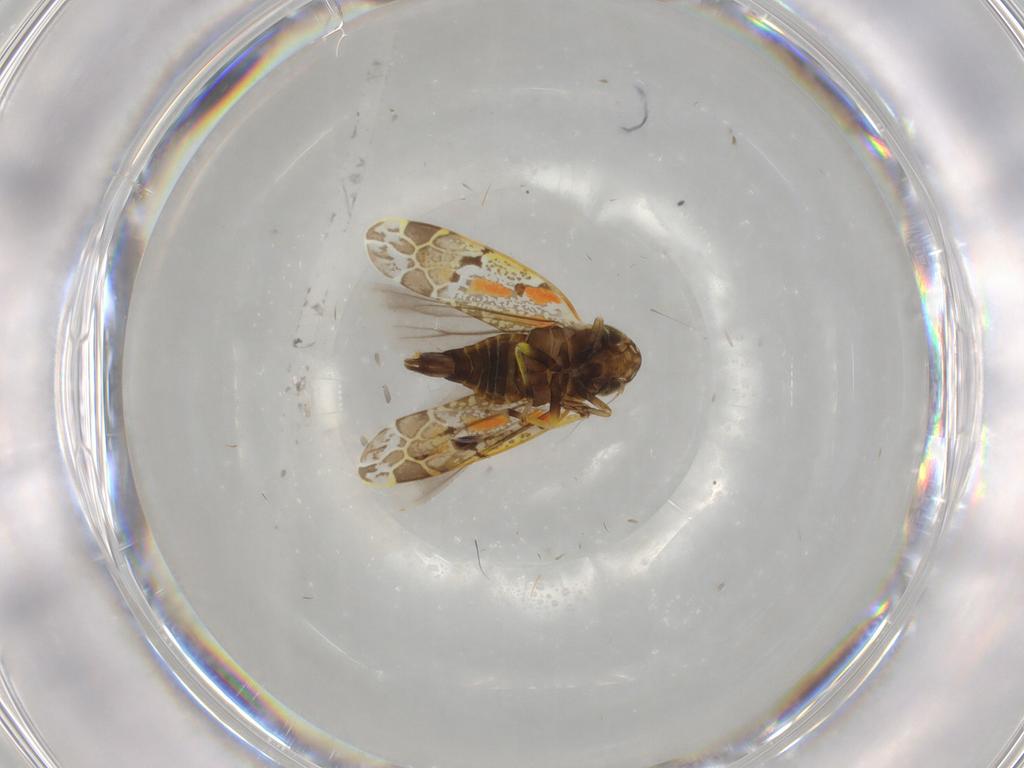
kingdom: Animalia
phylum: Arthropoda
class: Insecta
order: Hemiptera
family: Cicadellidae
